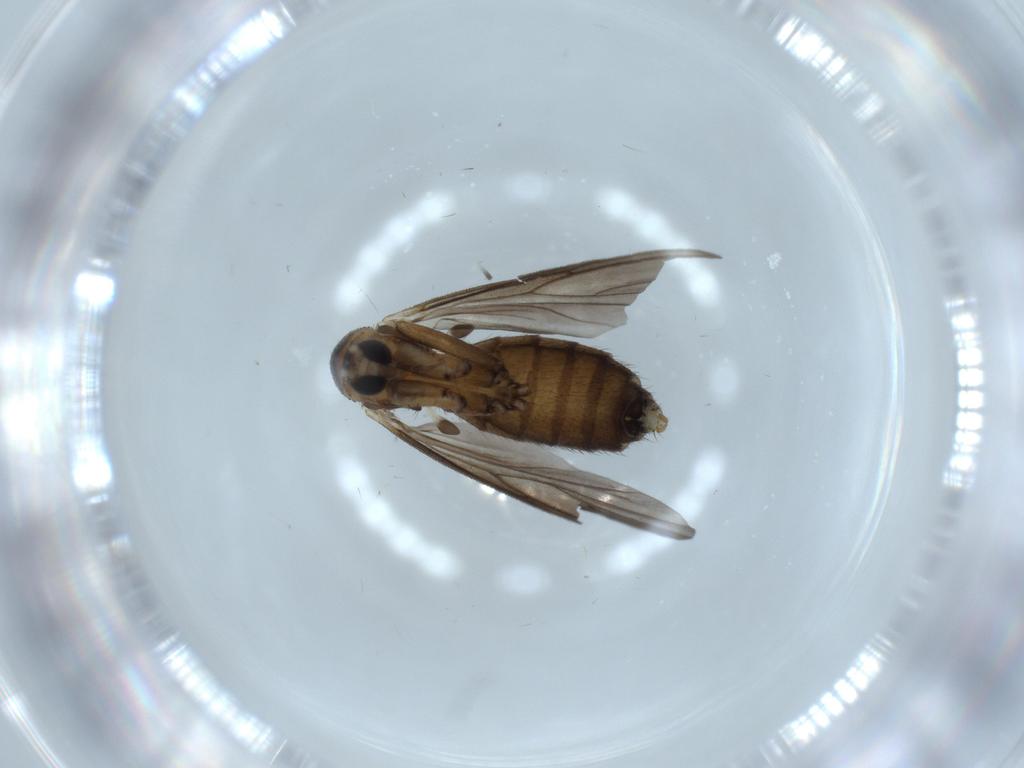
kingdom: Animalia
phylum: Arthropoda
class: Insecta
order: Diptera
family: Mycetophilidae
